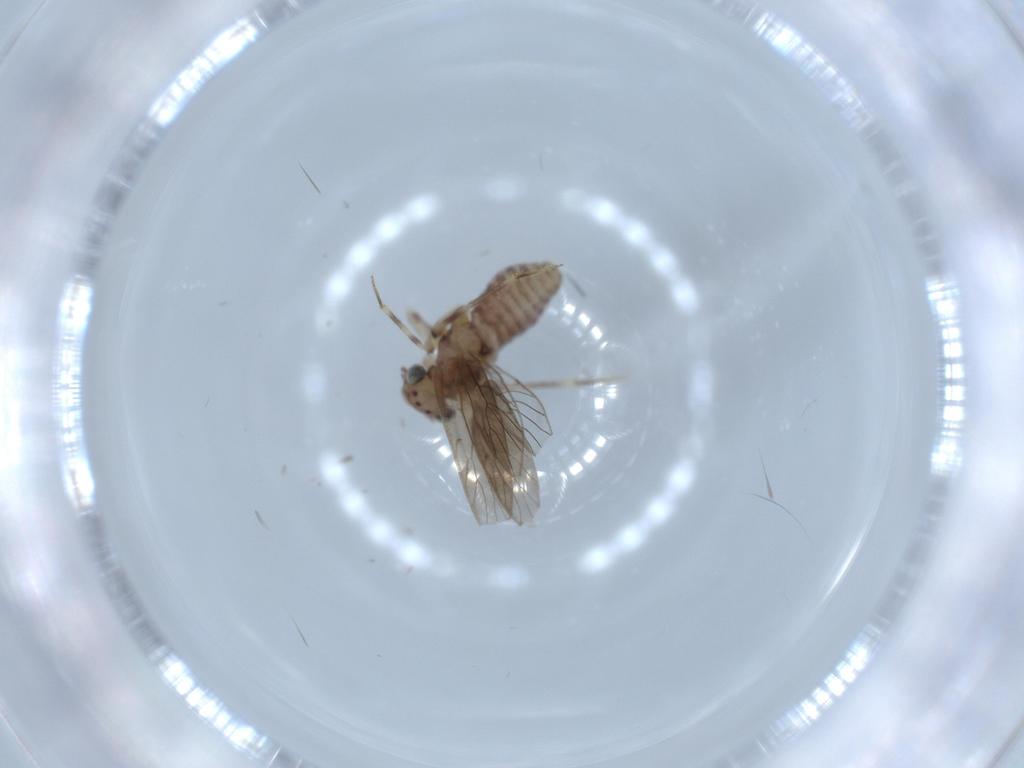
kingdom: Animalia
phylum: Arthropoda
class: Insecta
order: Psocodea
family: Lepidopsocidae
